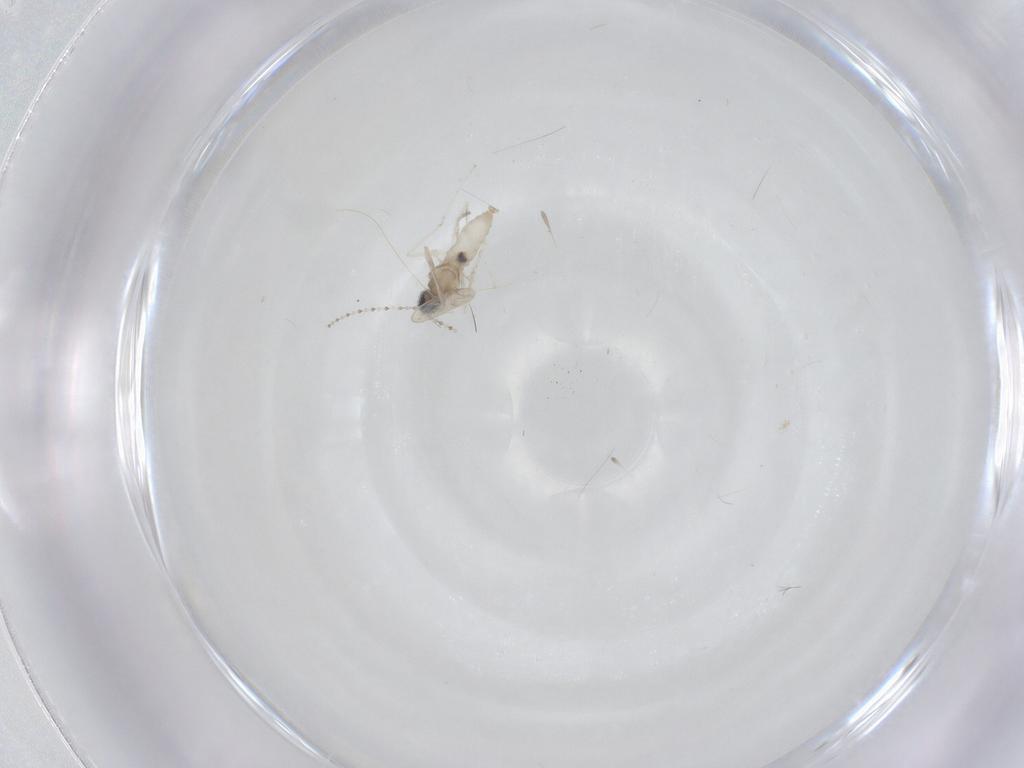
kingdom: Animalia
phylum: Arthropoda
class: Insecta
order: Diptera
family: Cecidomyiidae
